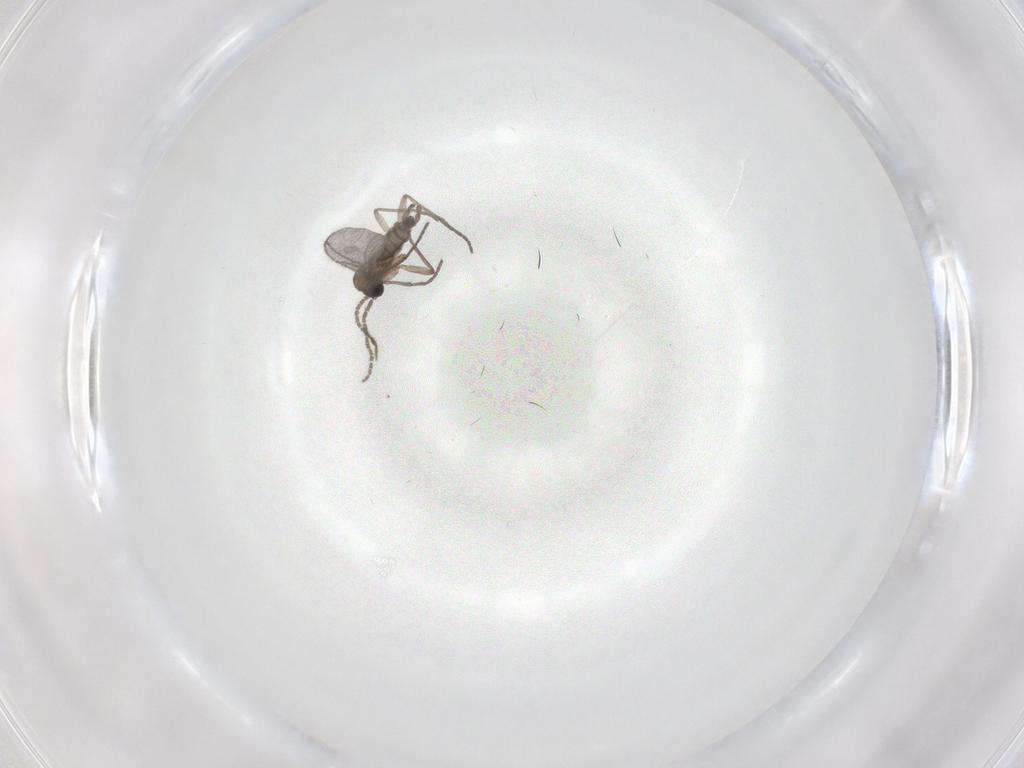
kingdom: Animalia
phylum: Arthropoda
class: Insecta
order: Diptera
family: Sciaridae
